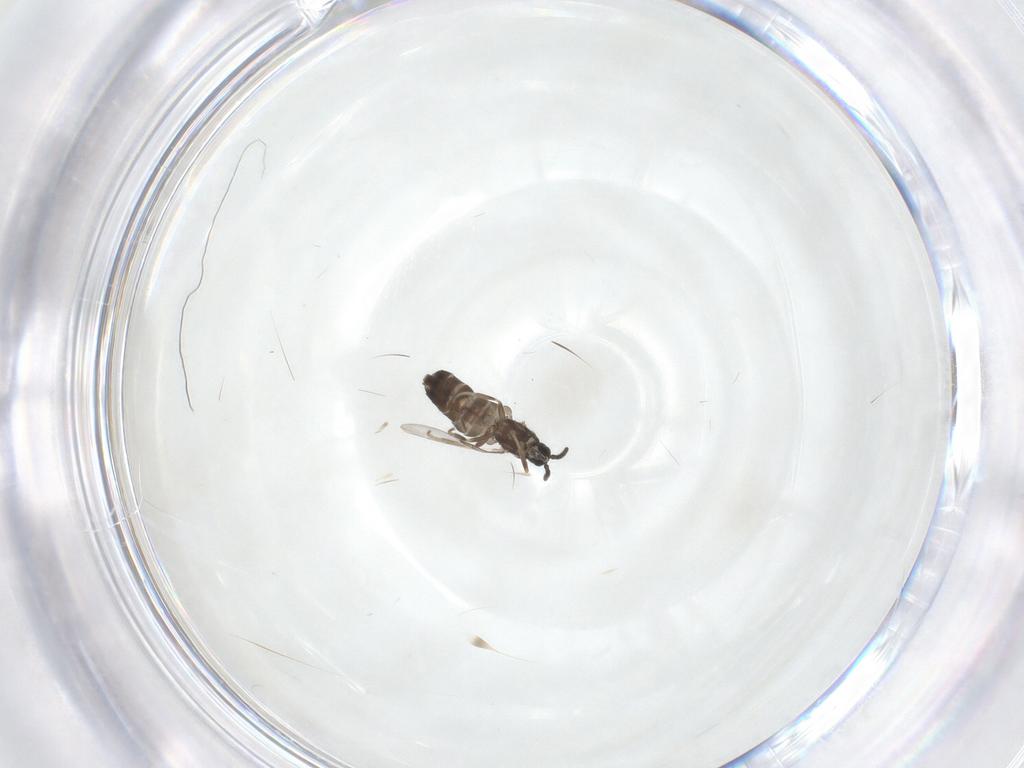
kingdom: Animalia
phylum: Arthropoda
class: Insecta
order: Diptera
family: Scatopsidae
